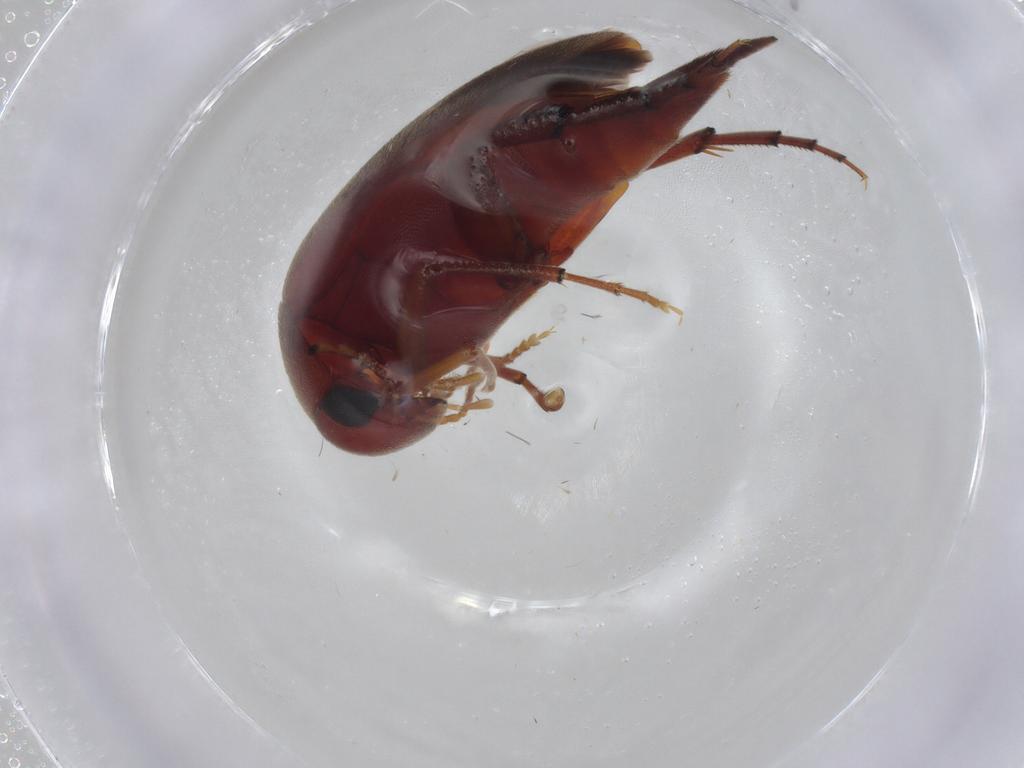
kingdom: Animalia
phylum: Arthropoda
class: Insecta
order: Coleoptera
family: Mordellidae
